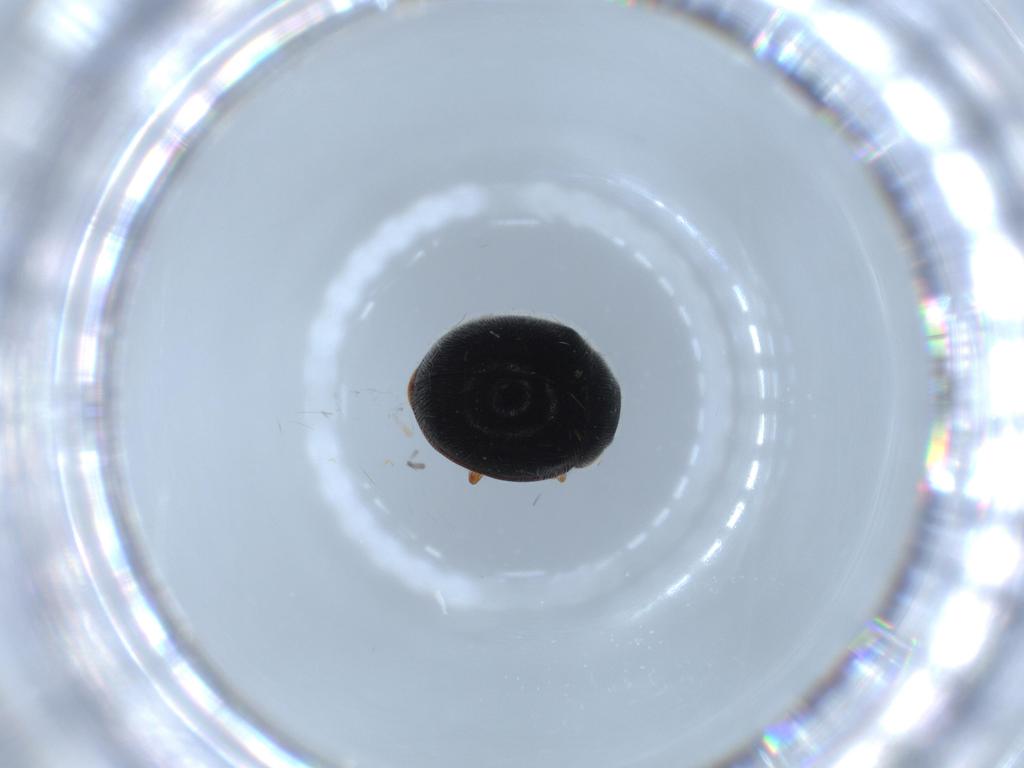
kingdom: Animalia
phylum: Arthropoda
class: Insecta
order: Coleoptera
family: Coccinellidae
